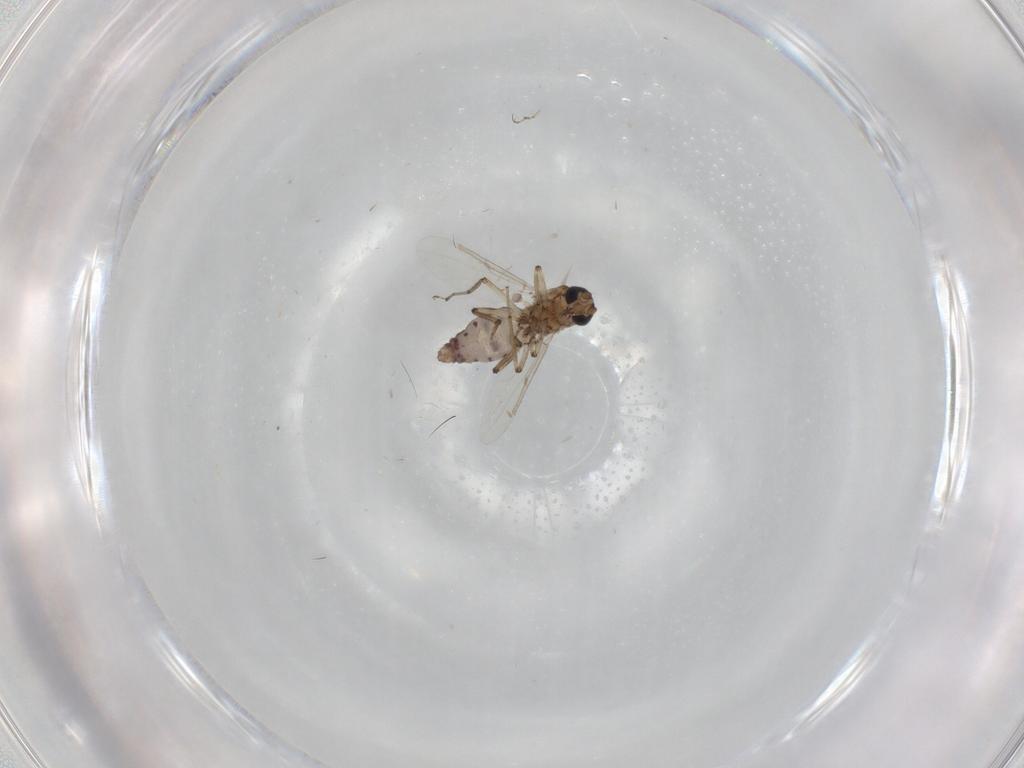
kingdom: Animalia
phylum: Arthropoda
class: Insecta
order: Diptera
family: Ceratopogonidae
